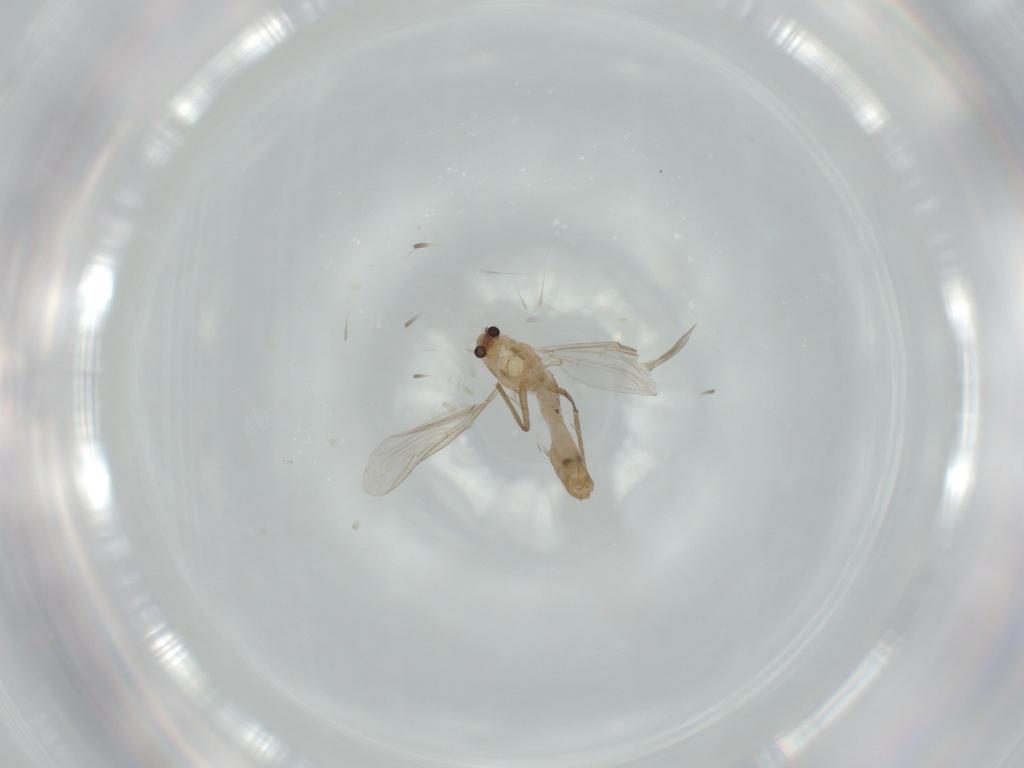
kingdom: Animalia
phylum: Arthropoda
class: Insecta
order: Diptera
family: Chironomidae
